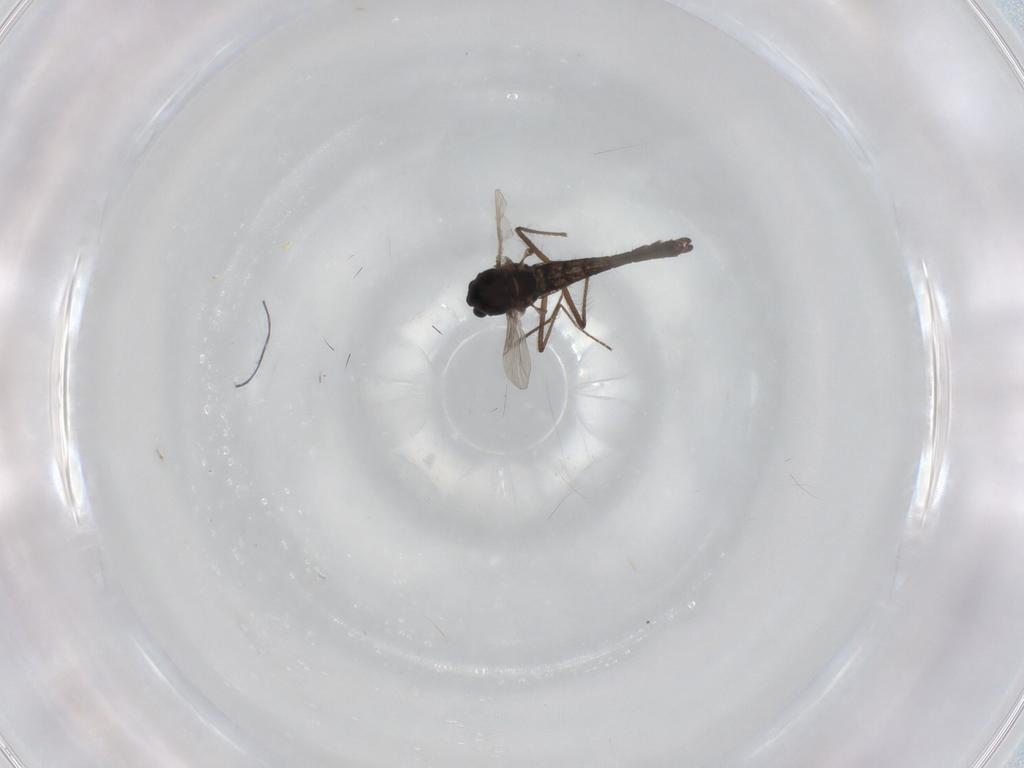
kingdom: Animalia
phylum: Arthropoda
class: Insecta
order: Diptera
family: Chironomidae
